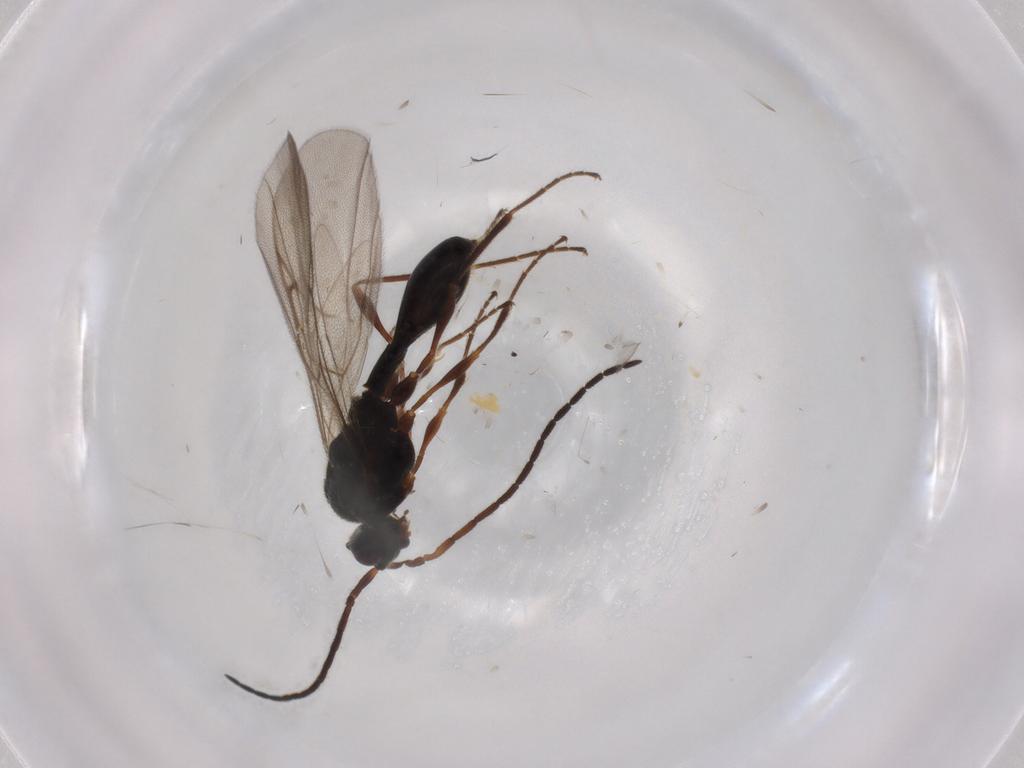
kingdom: Animalia
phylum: Arthropoda
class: Insecta
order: Hymenoptera
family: Diapriidae
